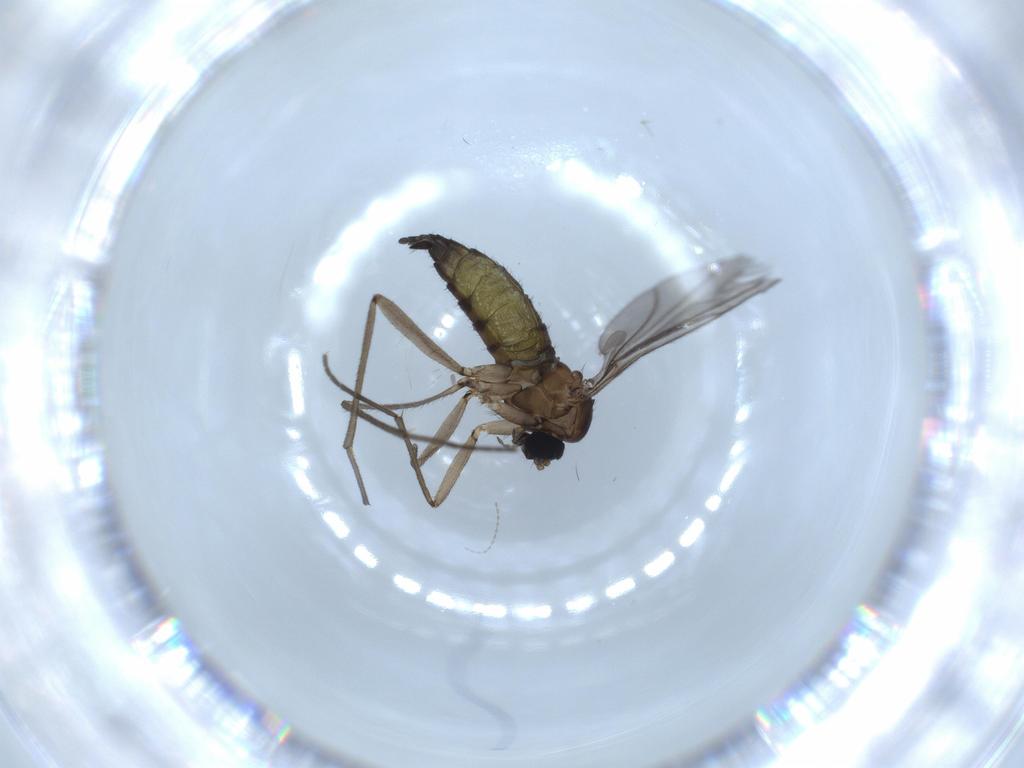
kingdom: Animalia
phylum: Arthropoda
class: Insecta
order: Diptera
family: Sciaridae
